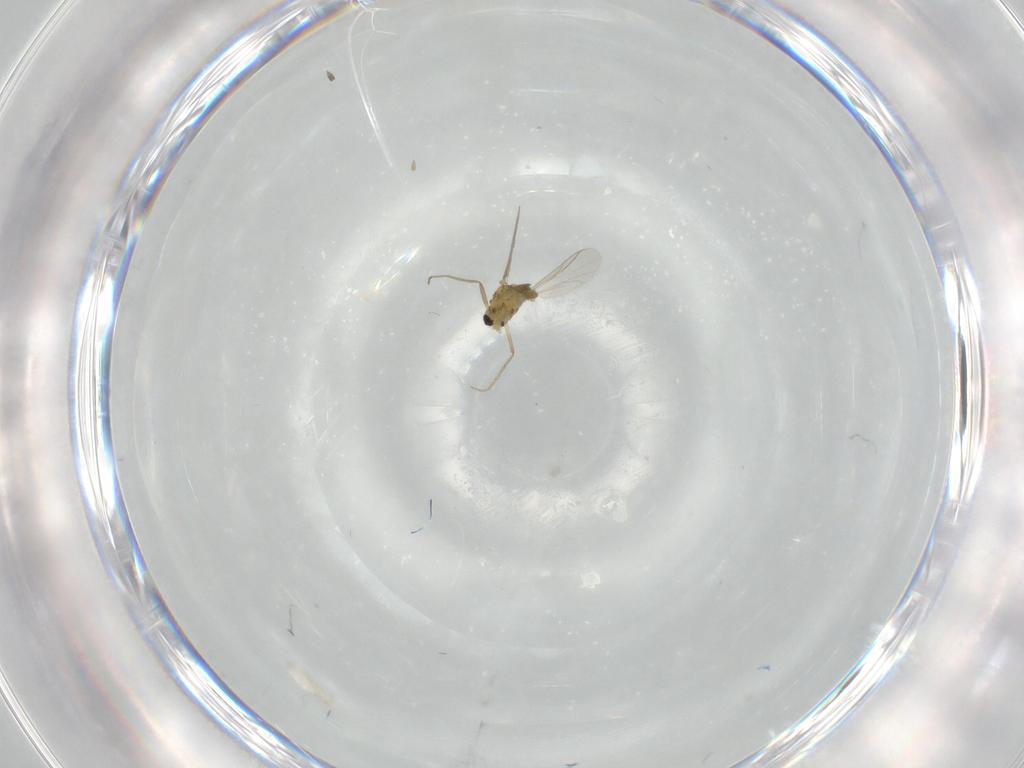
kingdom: Animalia
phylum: Arthropoda
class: Insecta
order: Diptera
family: Chironomidae
